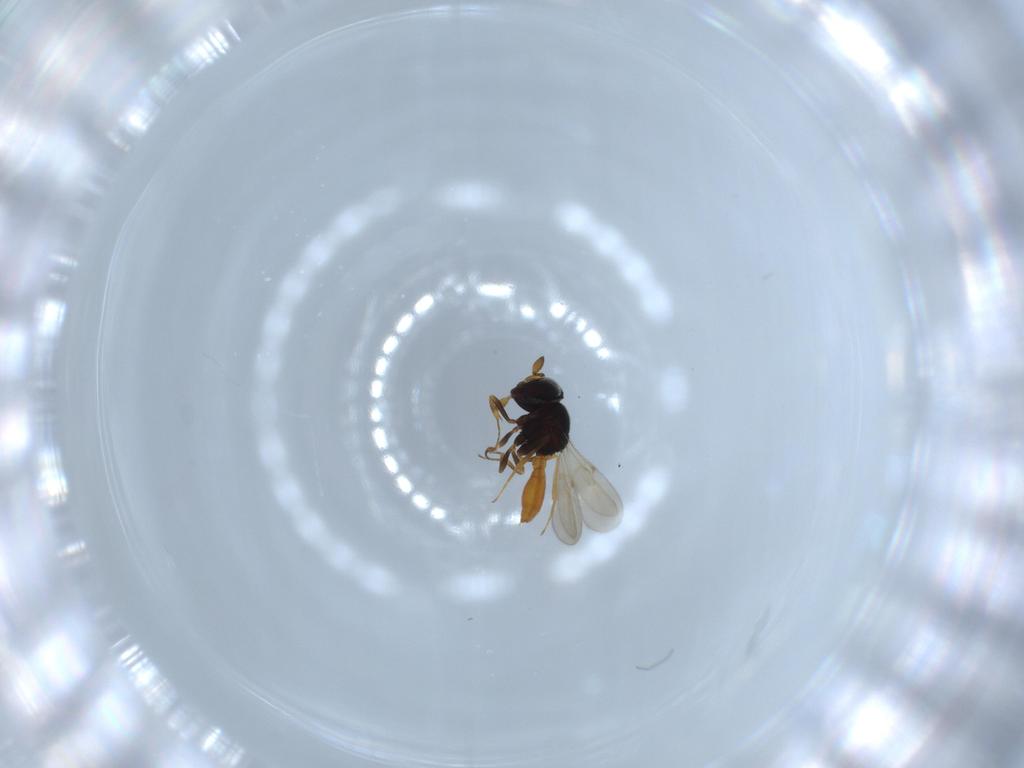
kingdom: Animalia
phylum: Arthropoda
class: Insecta
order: Hymenoptera
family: Scelionidae
